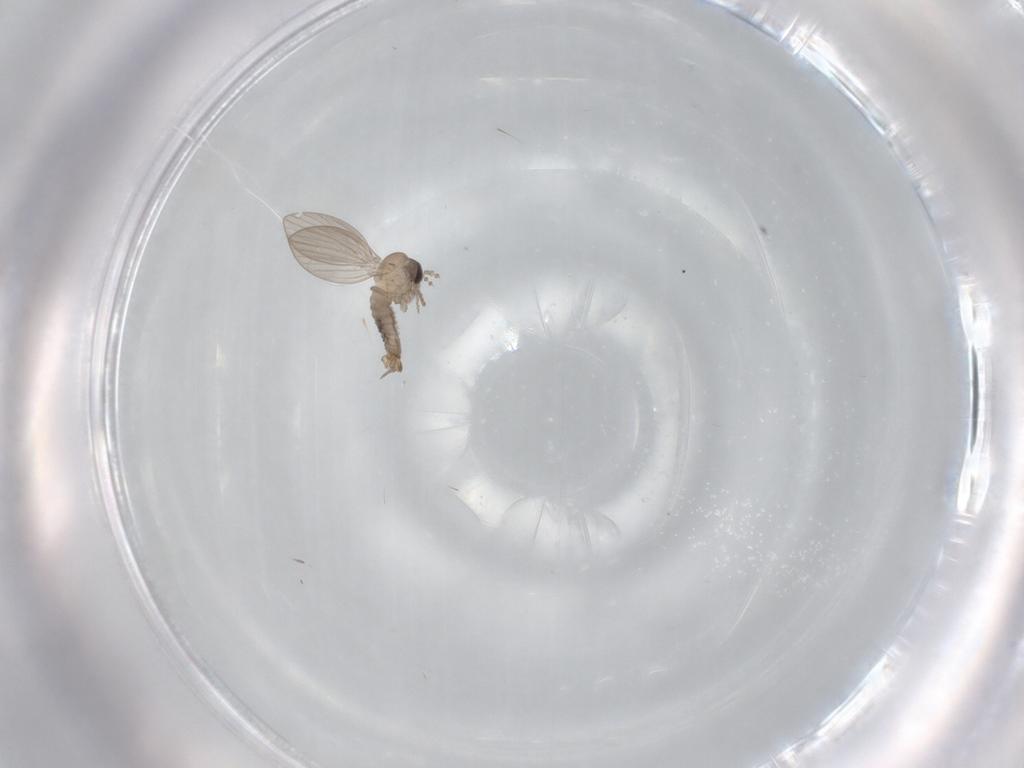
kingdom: Animalia
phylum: Arthropoda
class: Insecta
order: Diptera
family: Psychodidae
